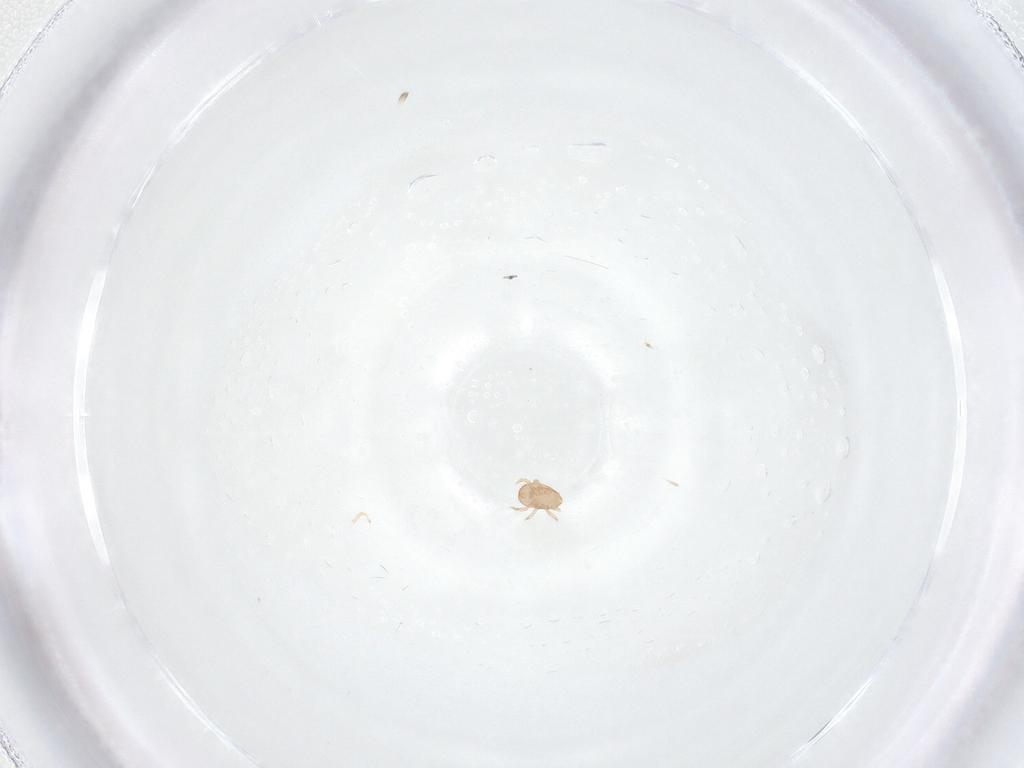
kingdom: Animalia
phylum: Arthropoda
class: Arachnida
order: Mesostigmata
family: Ascidae
